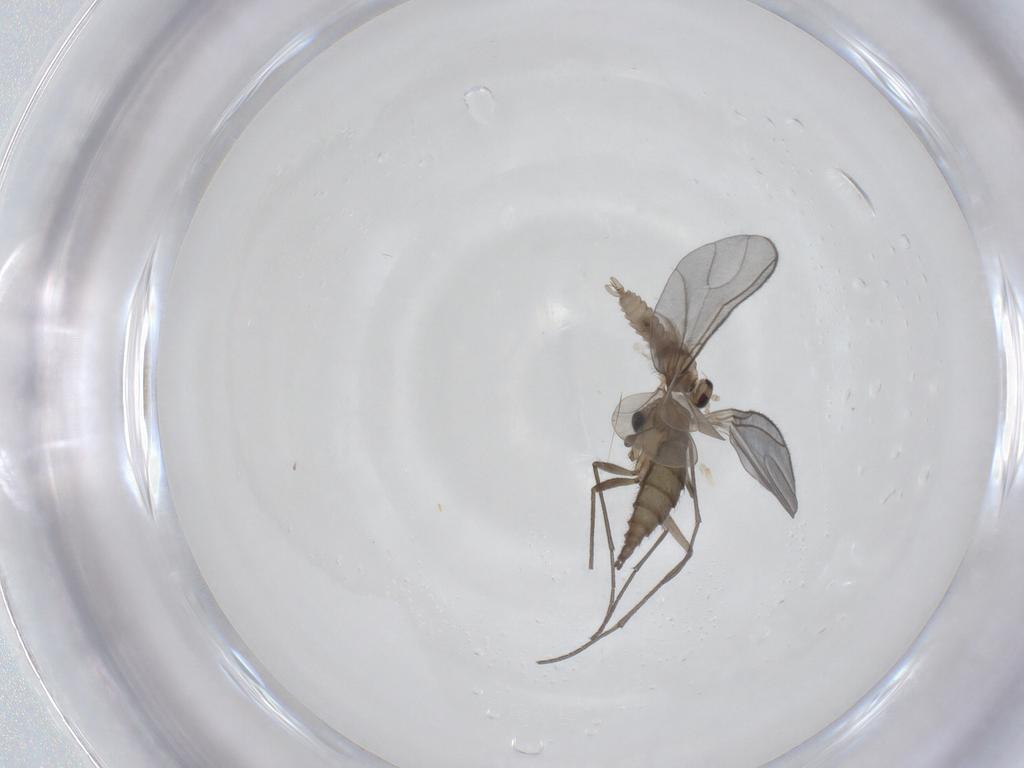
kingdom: Animalia
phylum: Arthropoda
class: Insecta
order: Diptera
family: Sciaridae
